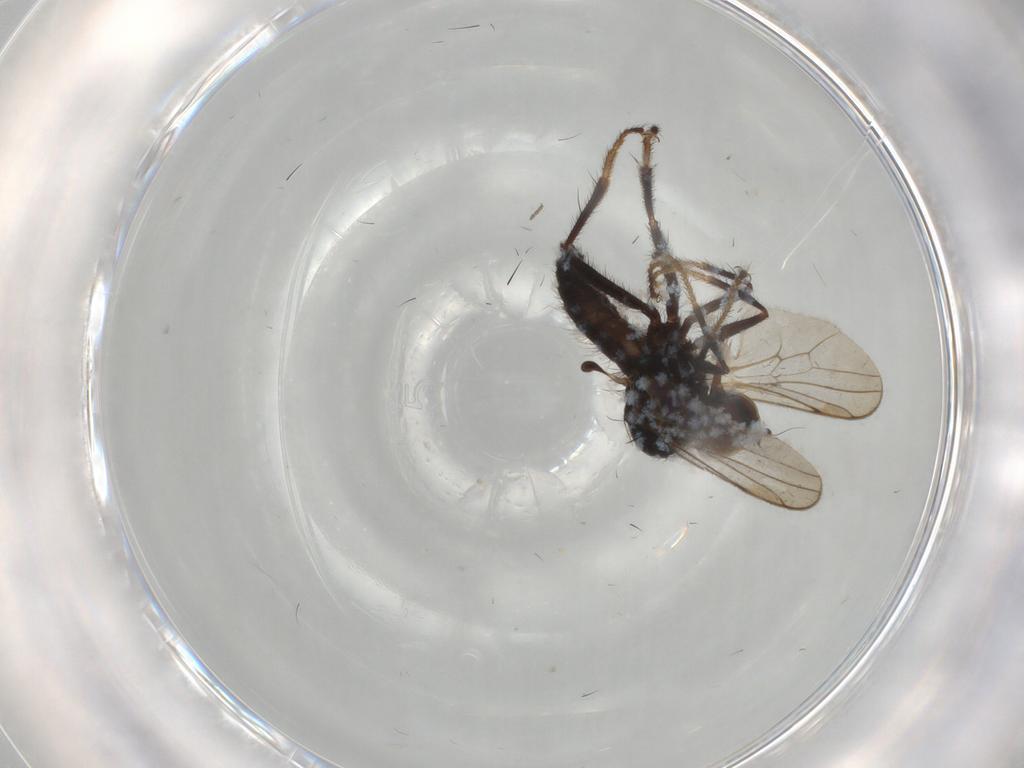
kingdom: Animalia
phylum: Arthropoda
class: Insecta
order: Diptera
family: Hybotidae
